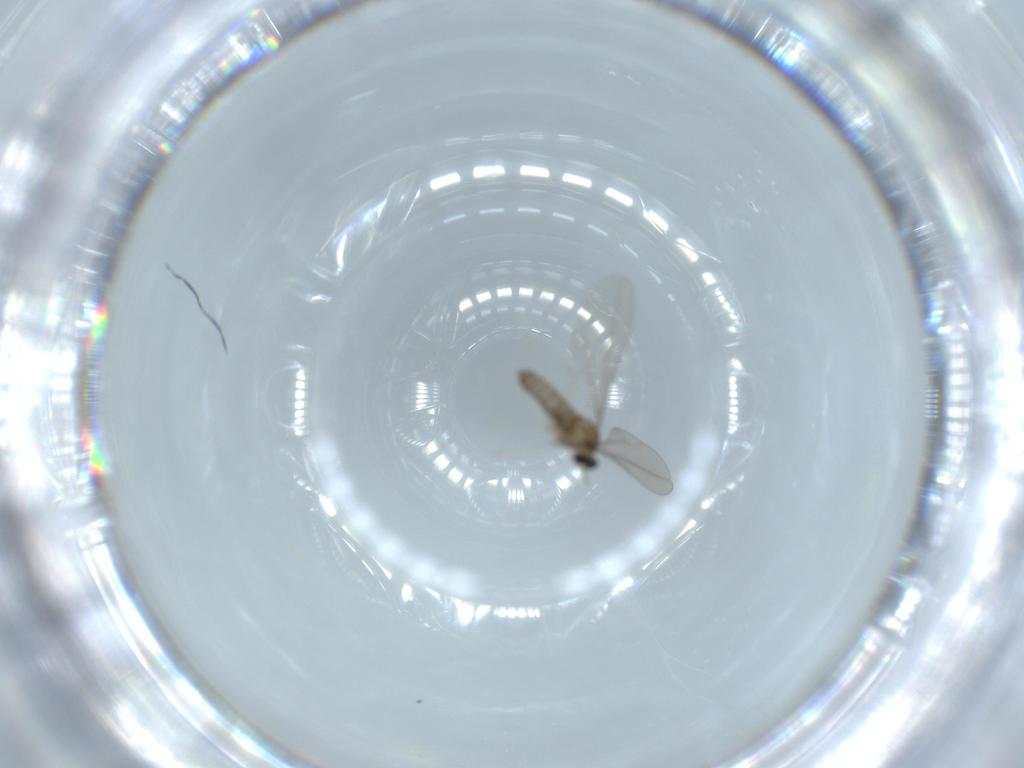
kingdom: Animalia
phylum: Arthropoda
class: Insecta
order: Diptera
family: Cecidomyiidae
